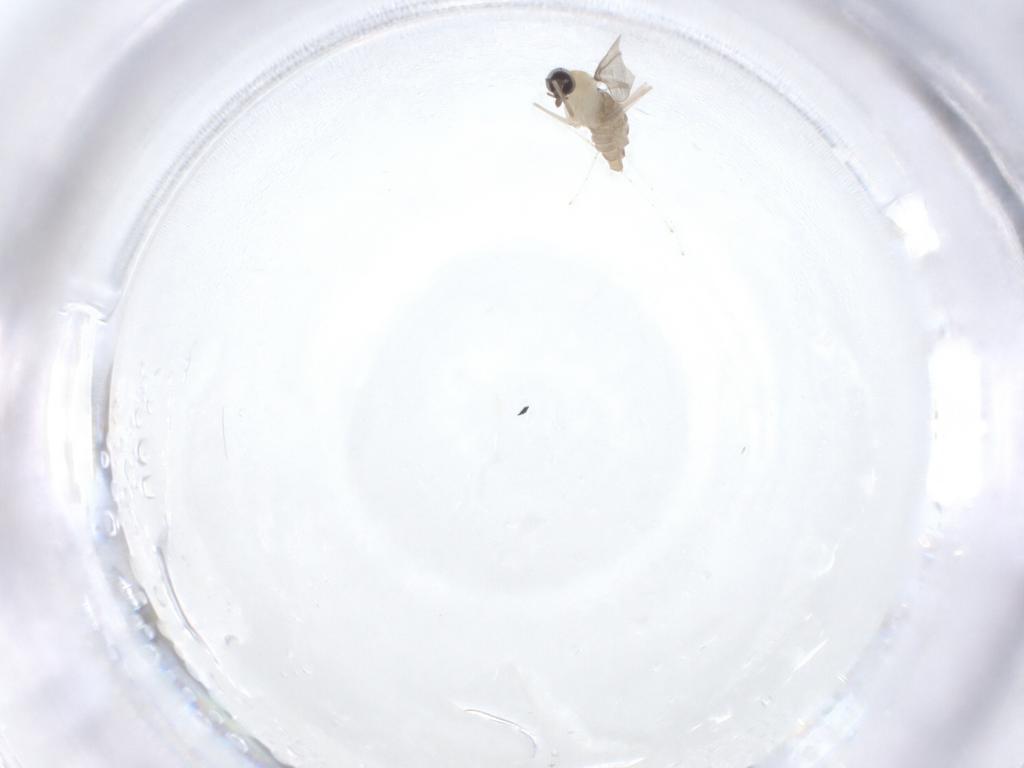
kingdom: Animalia
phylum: Arthropoda
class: Insecta
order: Diptera
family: Cecidomyiidae
